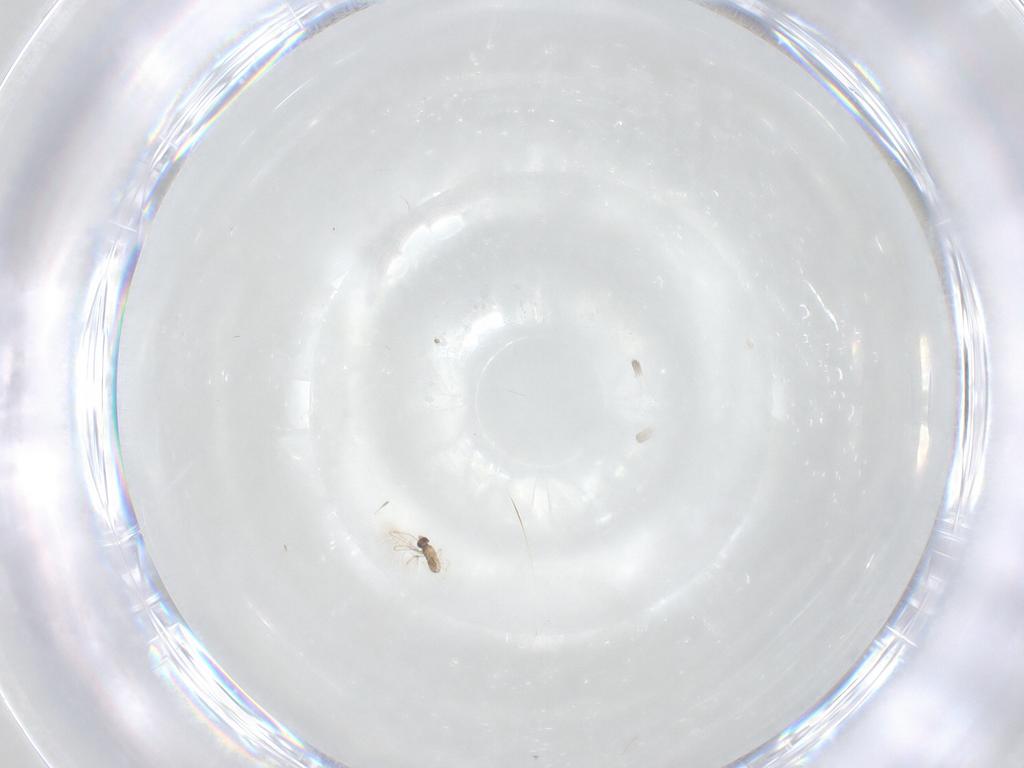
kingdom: Animalia
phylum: Arthropoda
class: Insecta
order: Hymenoptera
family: Mymaridae
